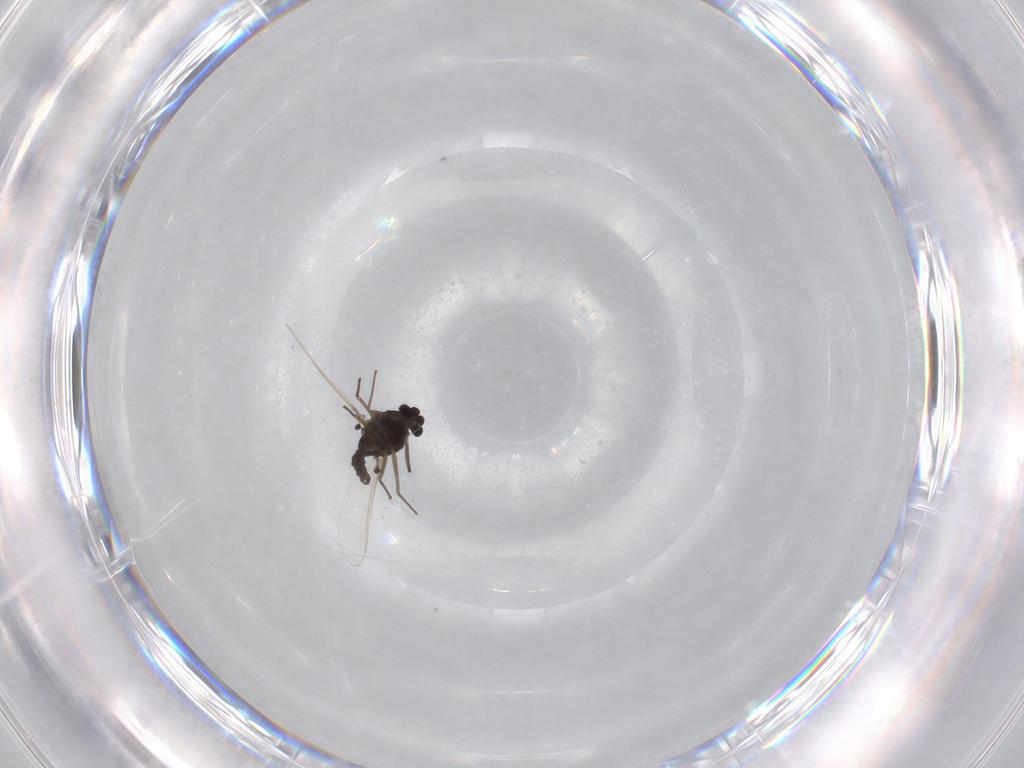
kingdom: Animalia
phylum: Arthropoda
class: Insecta
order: Diptera
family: Chironomidae
